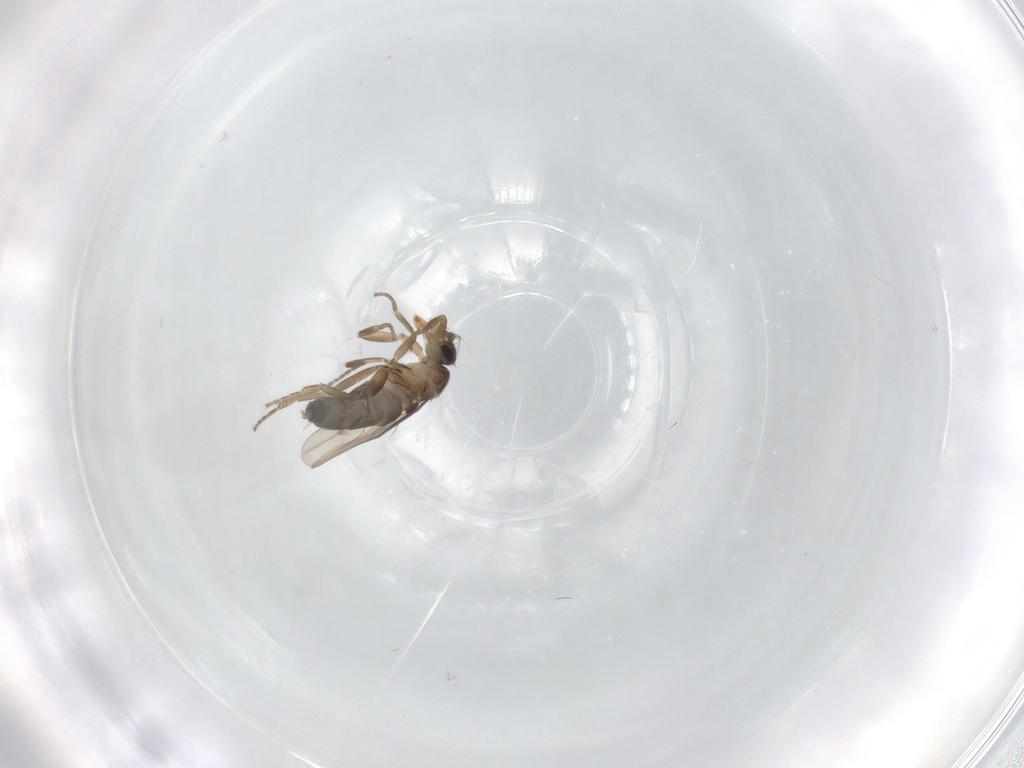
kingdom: Animalia
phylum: Arthropoda
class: Insecta
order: Diptera
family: Phoridae
